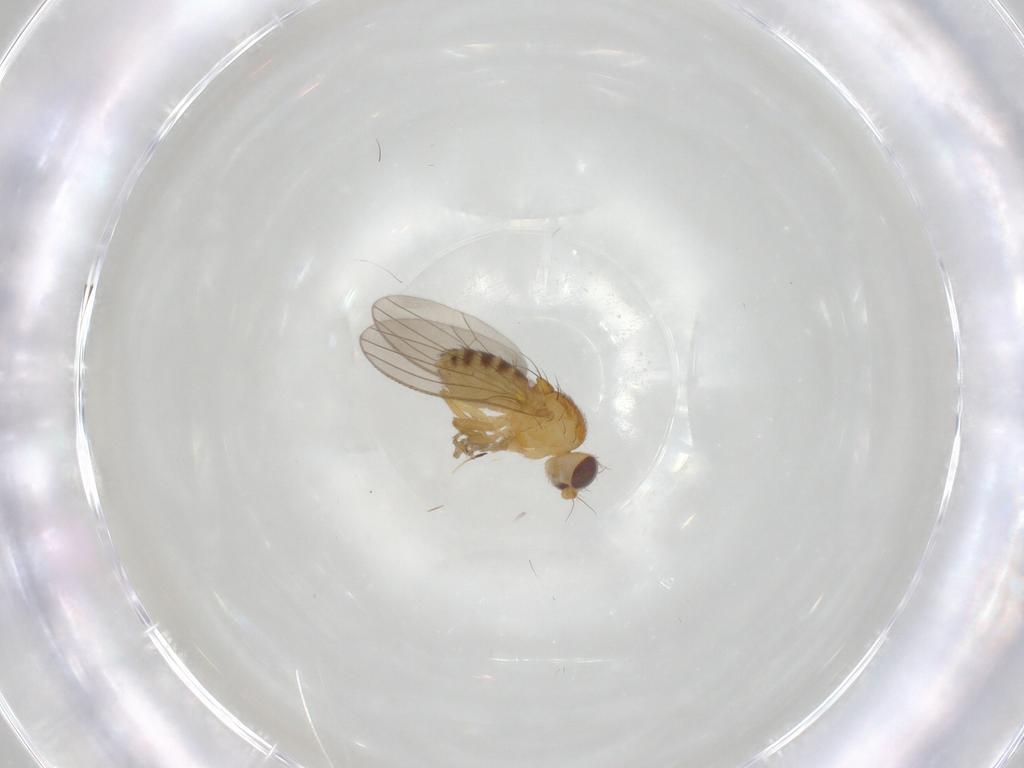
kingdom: Animalia
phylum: Arthropoda
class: Insecta
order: Diptera
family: Chyromyidae
